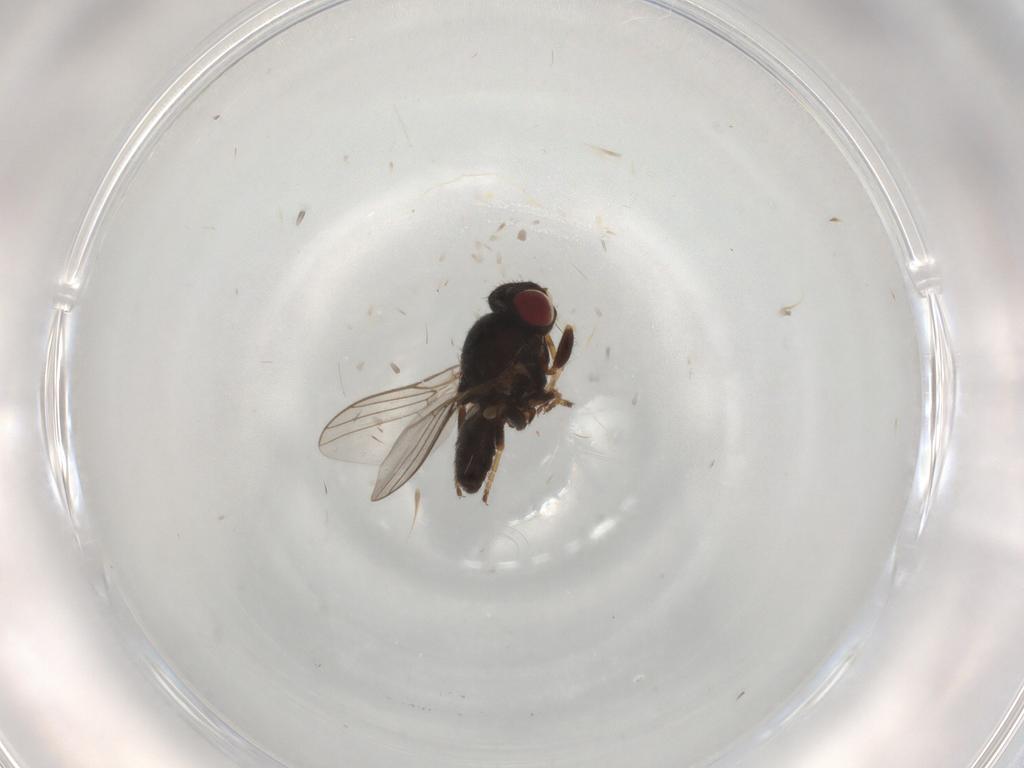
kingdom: Animalia
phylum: Arthropoda
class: Insecta
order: Diptera
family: Chloropidae
